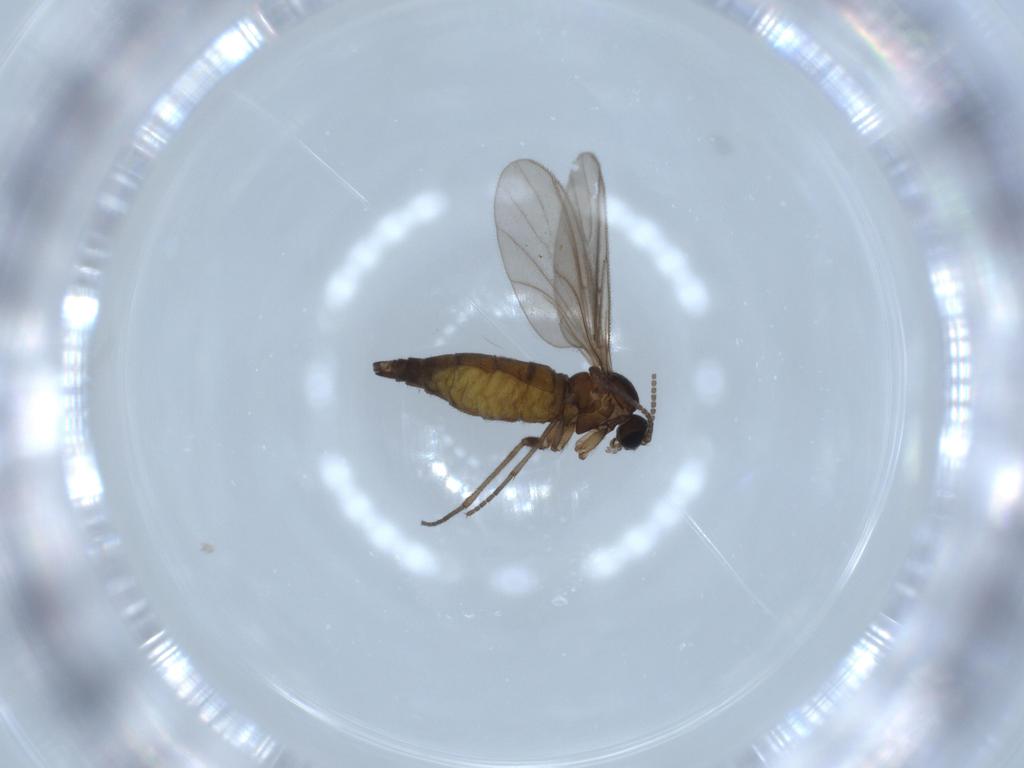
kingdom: Animalia
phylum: Arthropoda
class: Insecta
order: Diptera
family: Sciaridae
